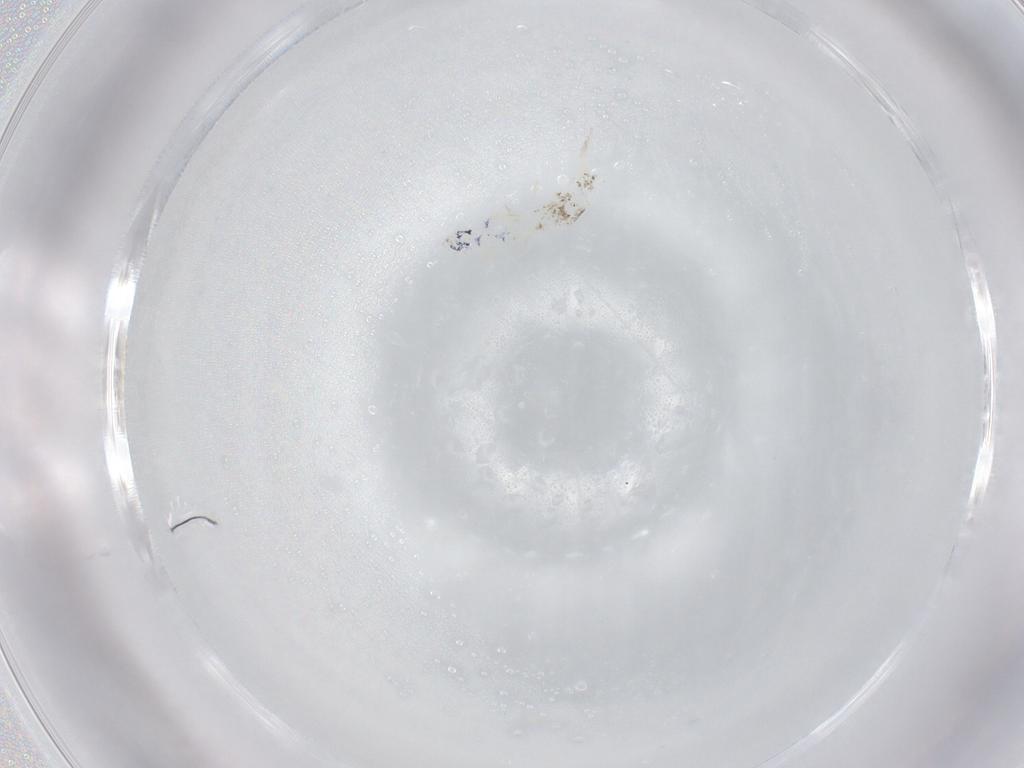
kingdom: Animalia
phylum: Arthropoda
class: Collembola
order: Entomobryomorpha
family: Entomobryidae
